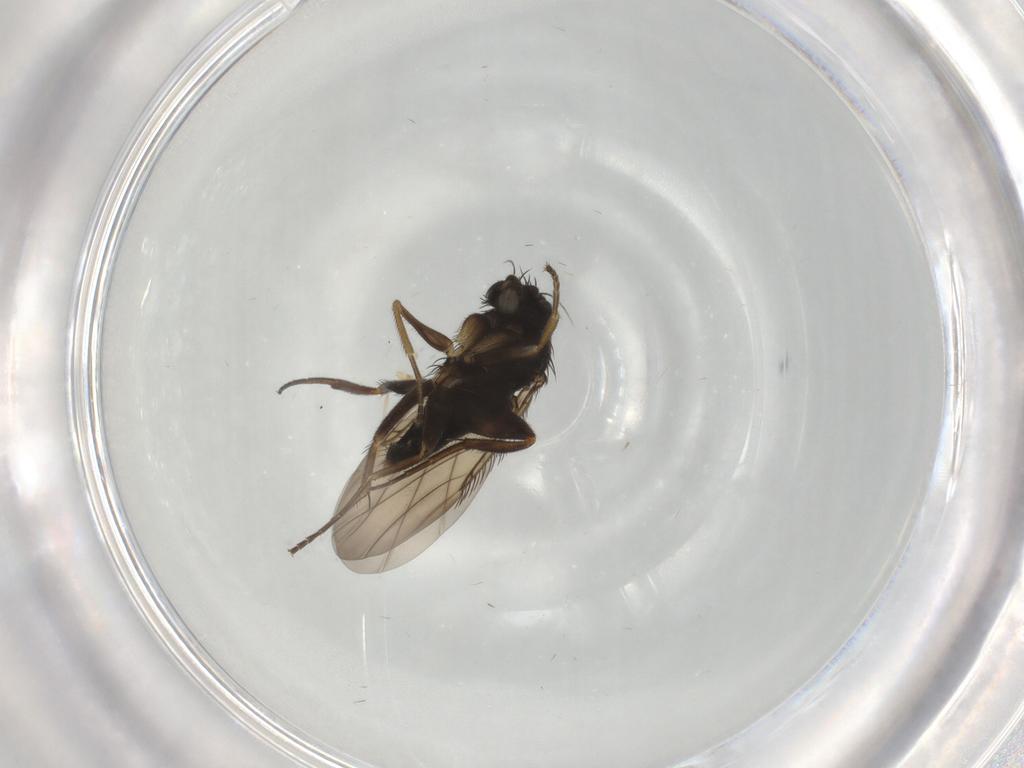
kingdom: Animalia
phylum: Arthropoda
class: Insecta
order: Diptera
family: Phoridae
